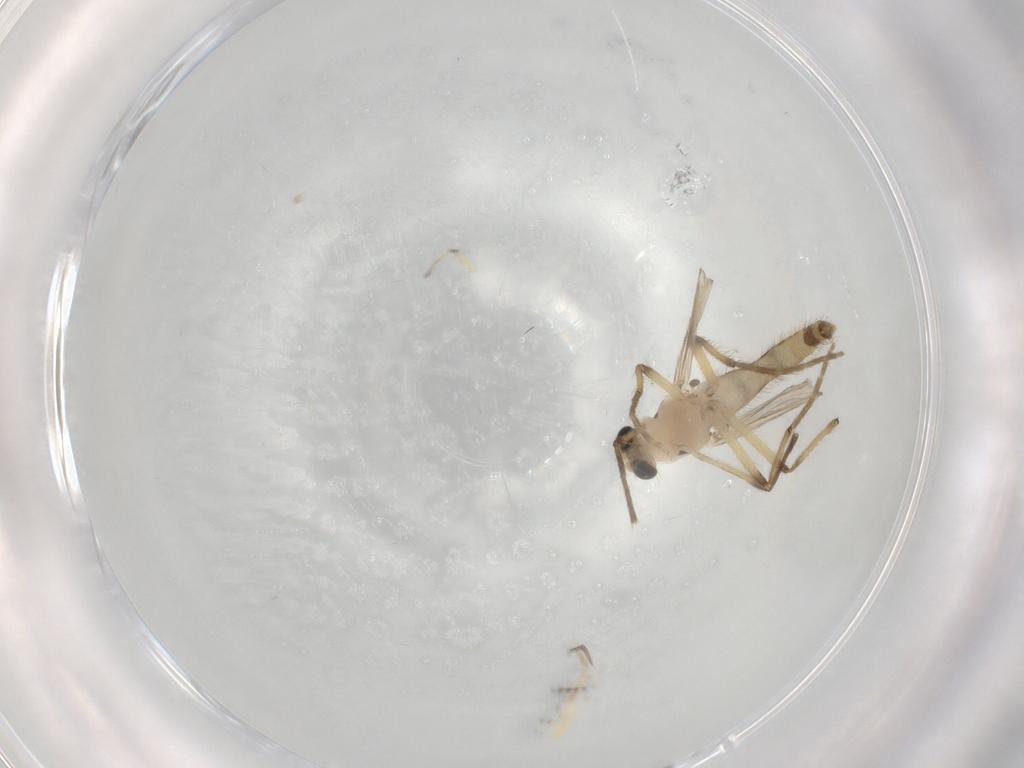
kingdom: Animalia
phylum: Arthropoda
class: Insecta
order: Diptera
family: Chironomidae
